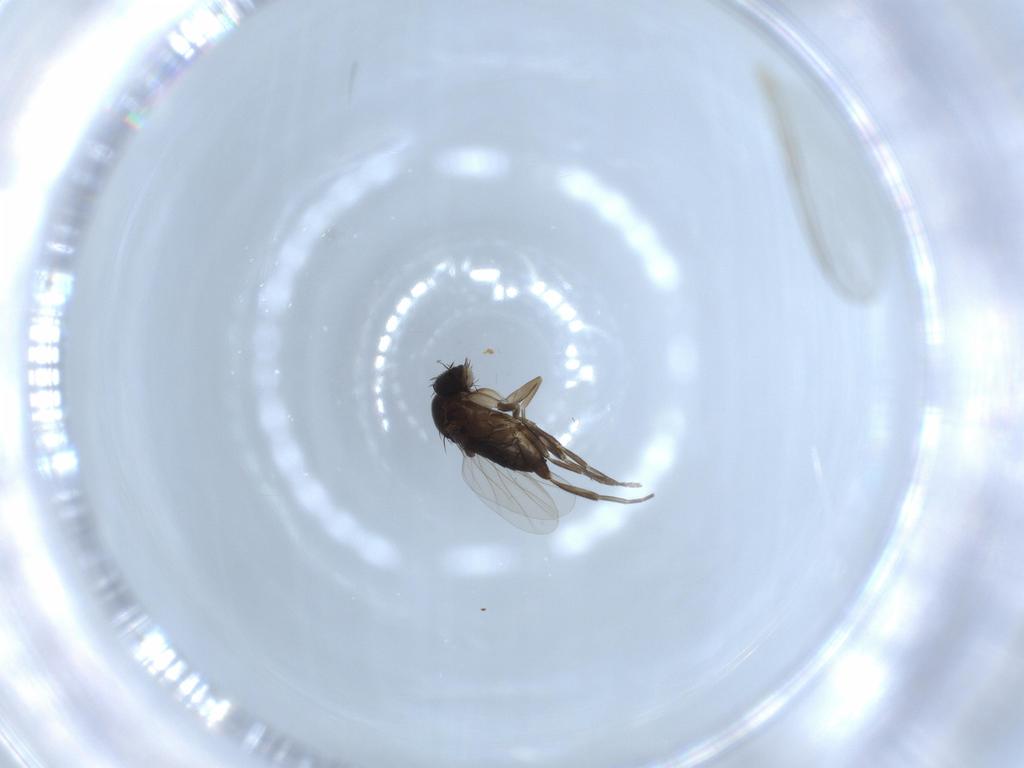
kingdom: Animalia
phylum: Arthropoda
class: Insecta
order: Diptera
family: Phoridae
